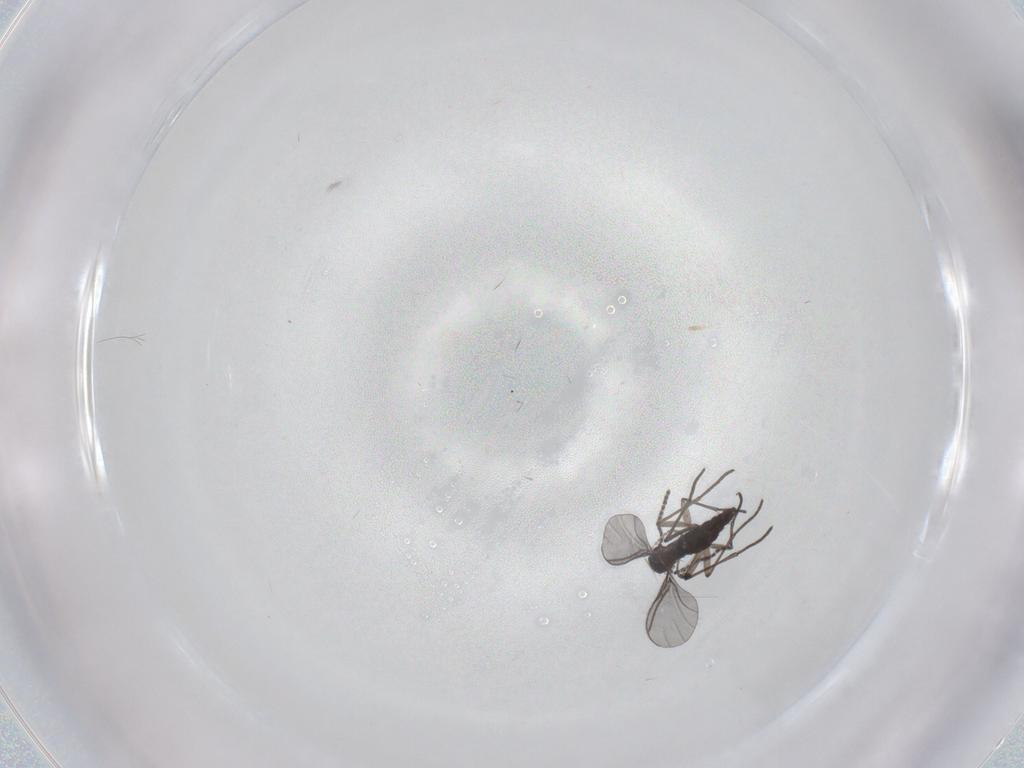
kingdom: Animalia
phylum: Arthropoda
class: Insecta
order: Diptera
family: Cecidomyiidae
